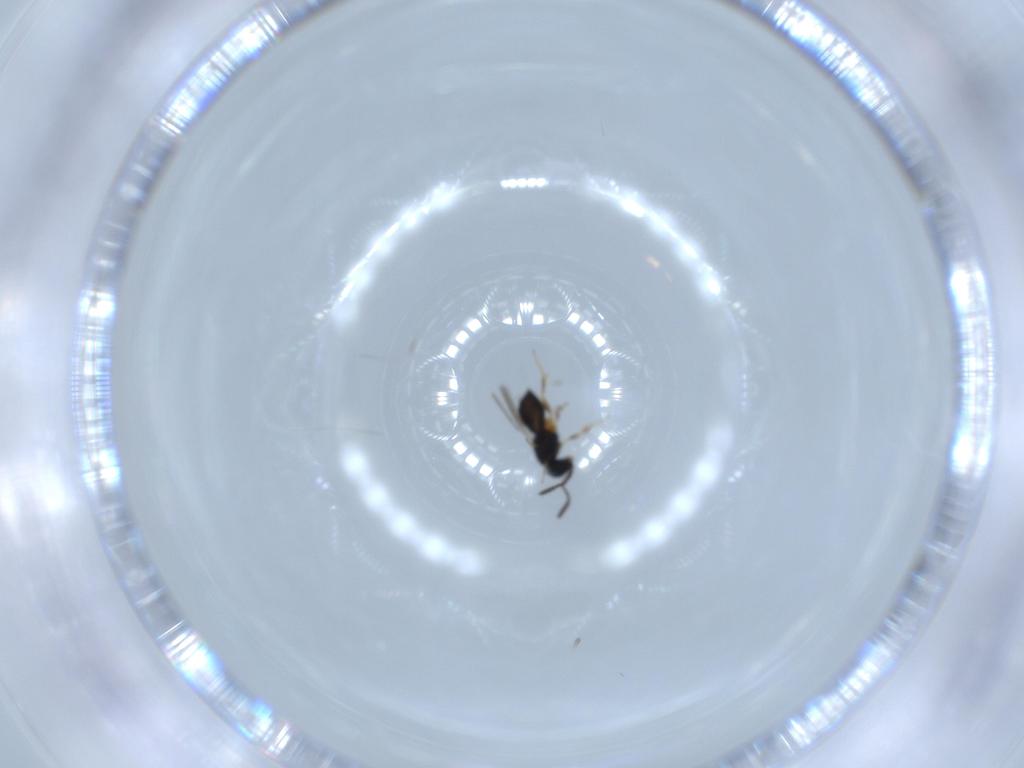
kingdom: Animalia
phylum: Arthropoda
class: Insecta
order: Hymenoptera
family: Scelionidae
